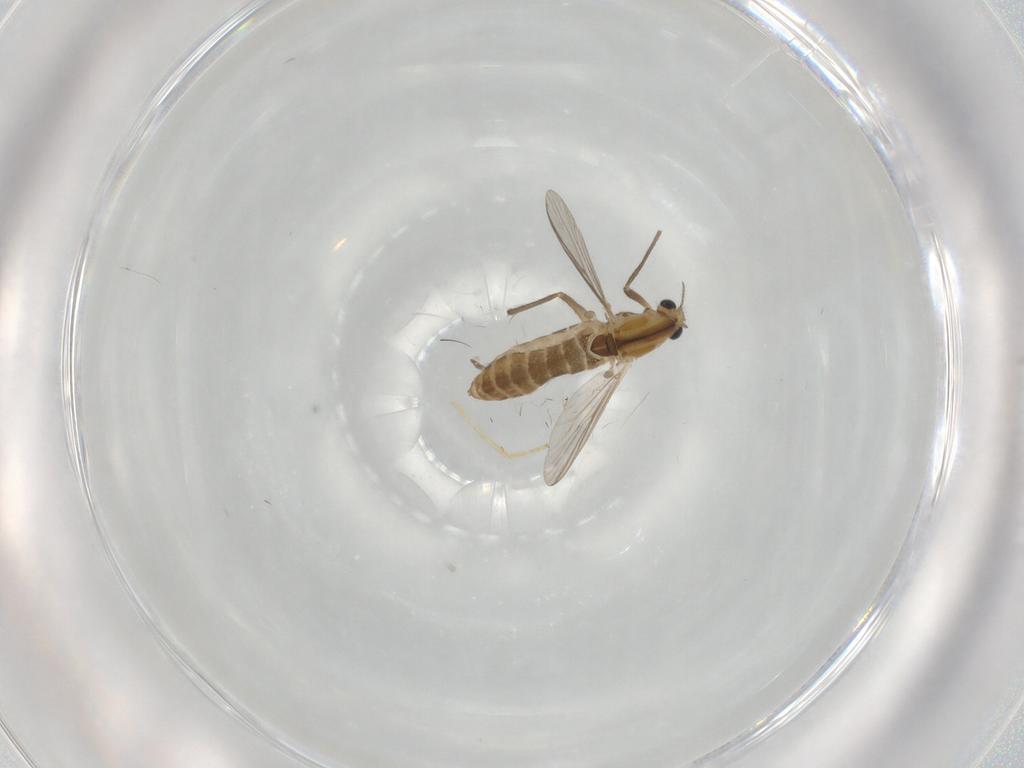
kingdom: Animalia
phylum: Arthropoda
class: Insecta
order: Diptera
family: Chironomidae
